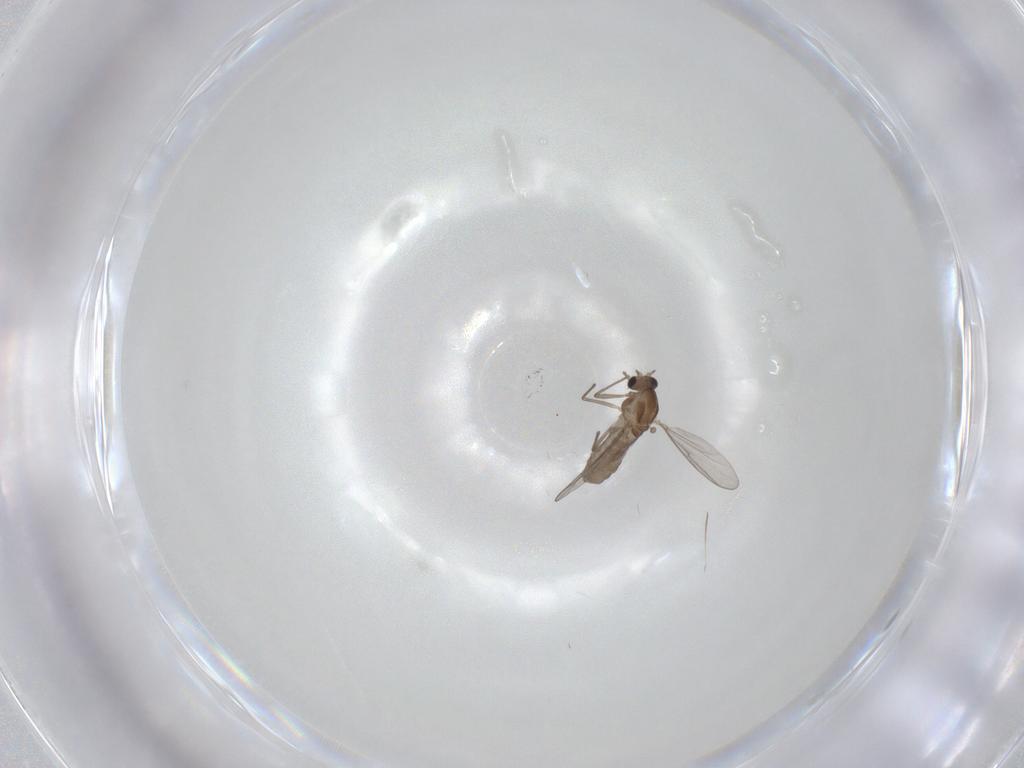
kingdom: Animalia
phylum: Arthropoda
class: Insecta
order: Diptera
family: Chironomidae
